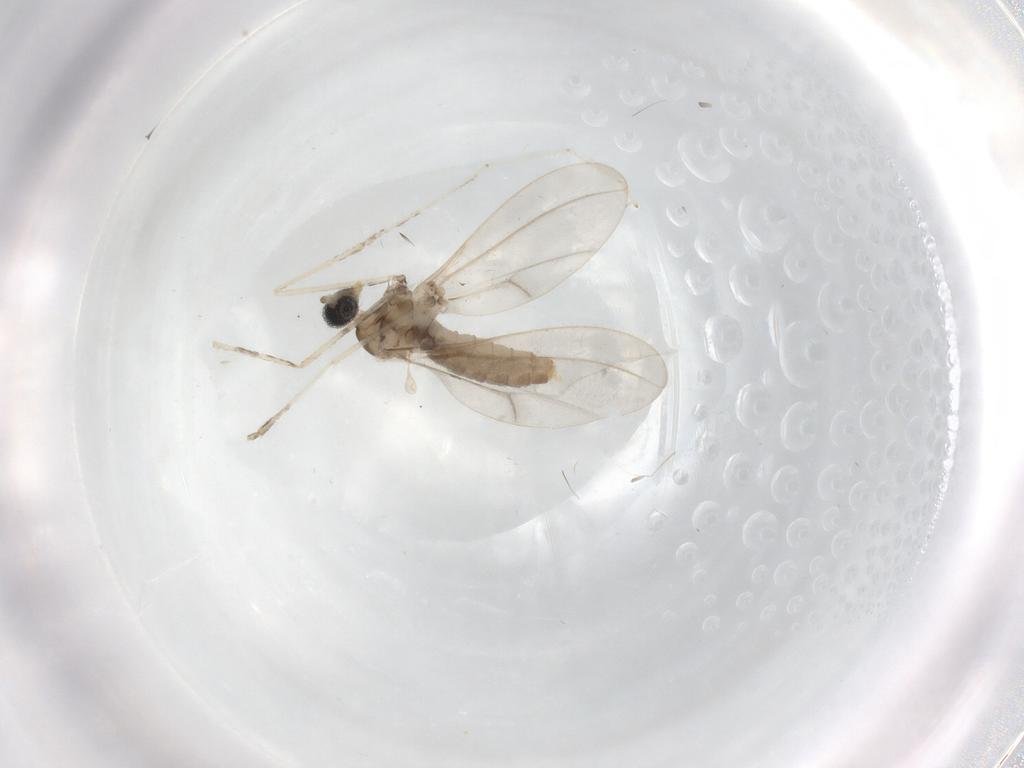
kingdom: Animalia
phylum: Arthropoda
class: Insecta
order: Diptera
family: Cecidomyiidae
